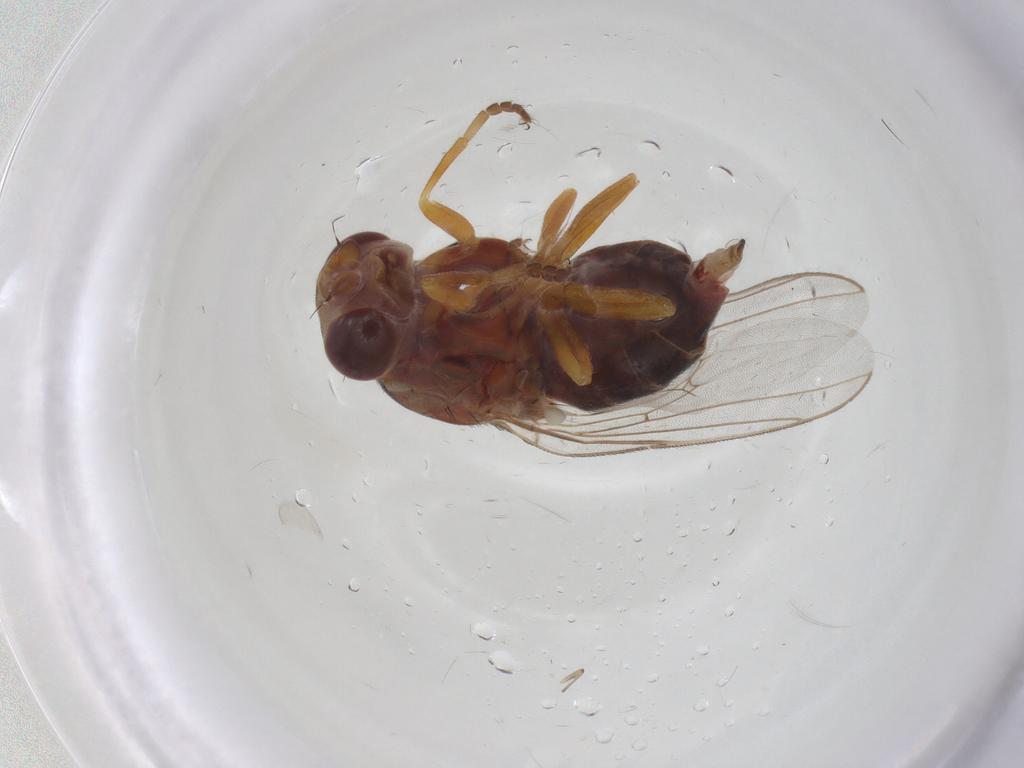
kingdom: Animalia
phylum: Arthropoda
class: Insecta
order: Diptera
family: Chloropidae
